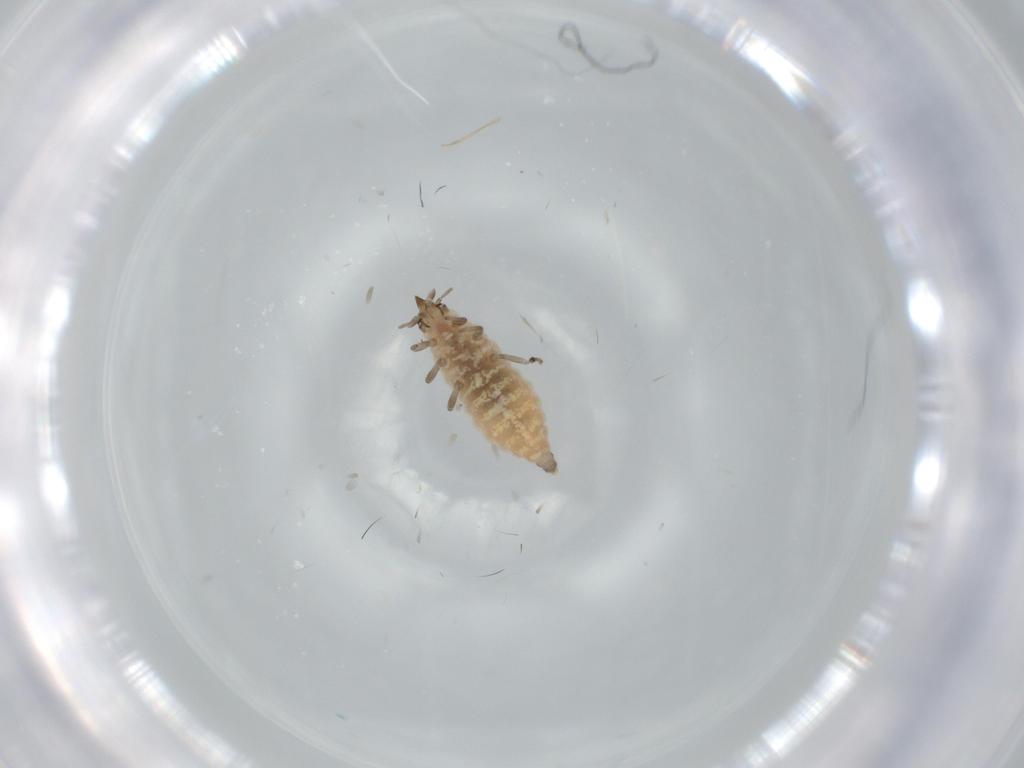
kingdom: Animalia
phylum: Arthropoda
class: Insecta
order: Neuroptera
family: Coniopterygidae
